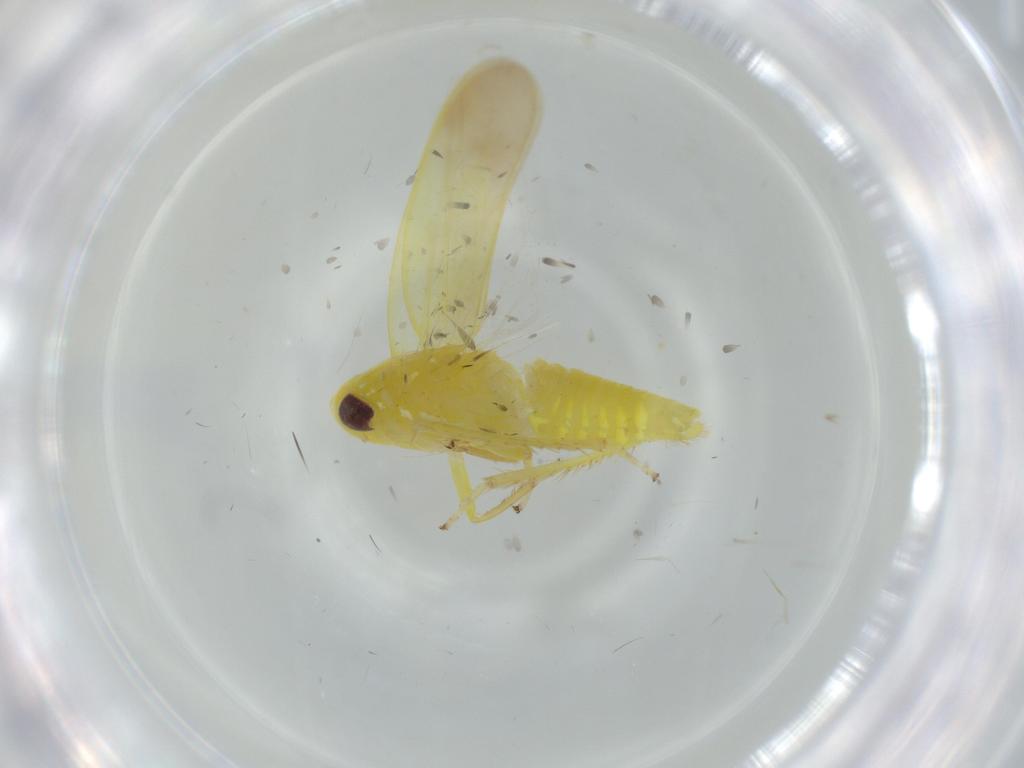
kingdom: Animalia
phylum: Arthropoda
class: Insecta
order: Hemiptera
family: Cicadellidae
